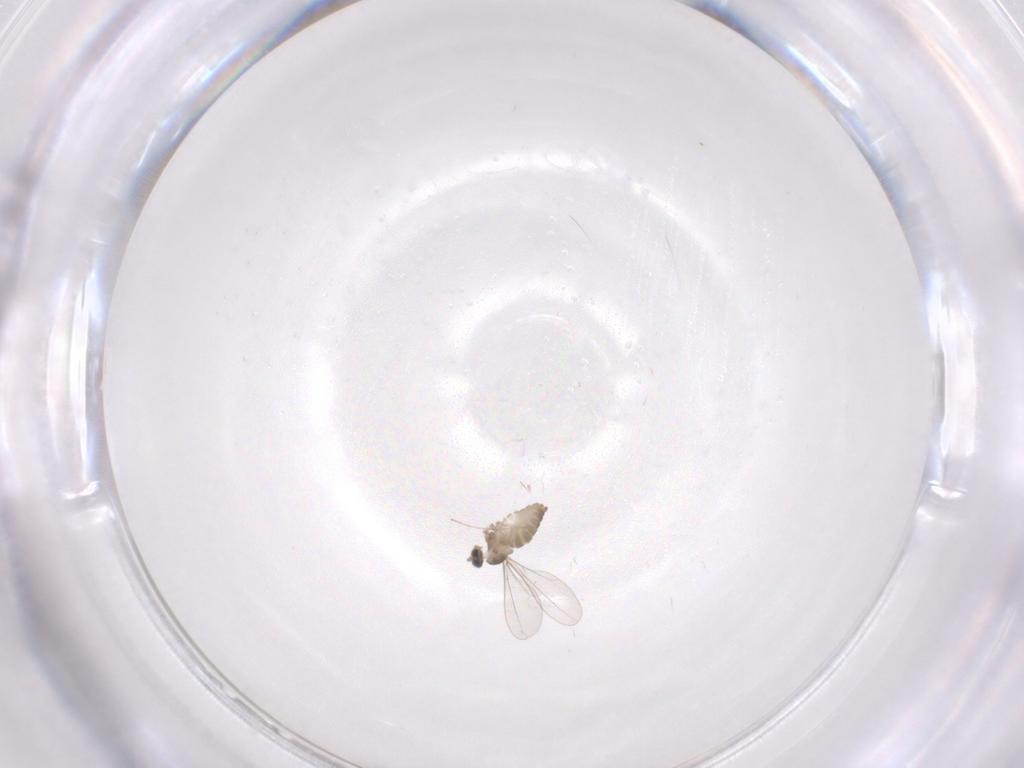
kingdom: Animalia
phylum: Arthropoda
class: Insecta
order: Diptera
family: Cecidomyiidae
